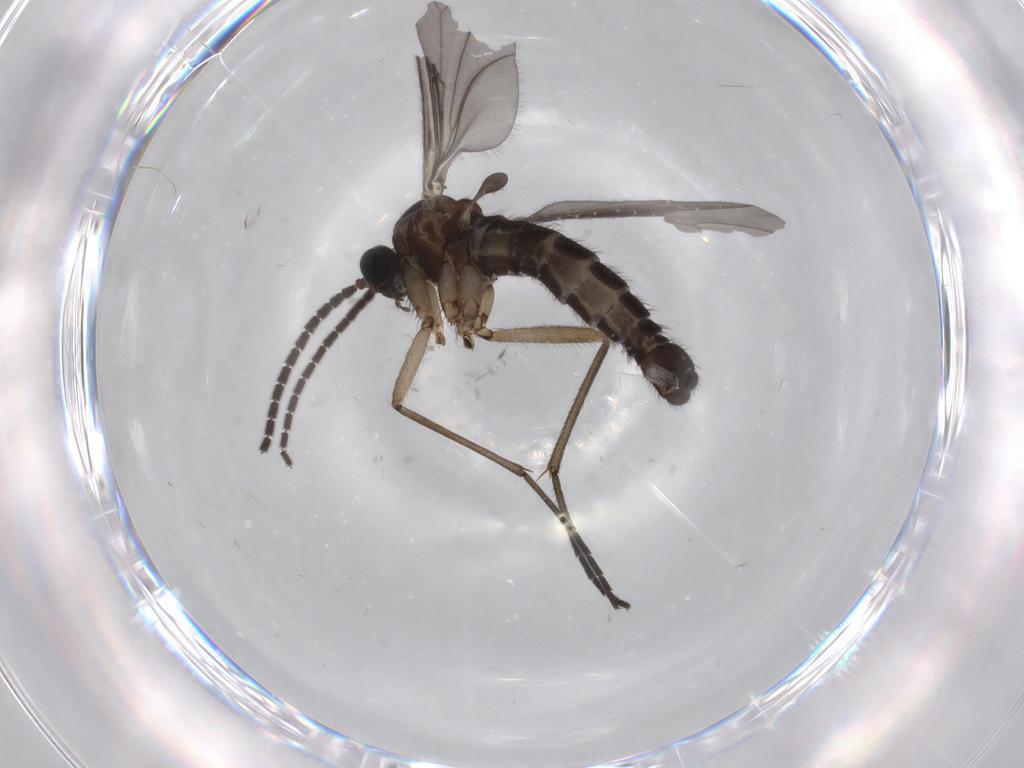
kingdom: Animalia
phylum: Arthropoda
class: Insecta
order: Diptera
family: Sciaridae
